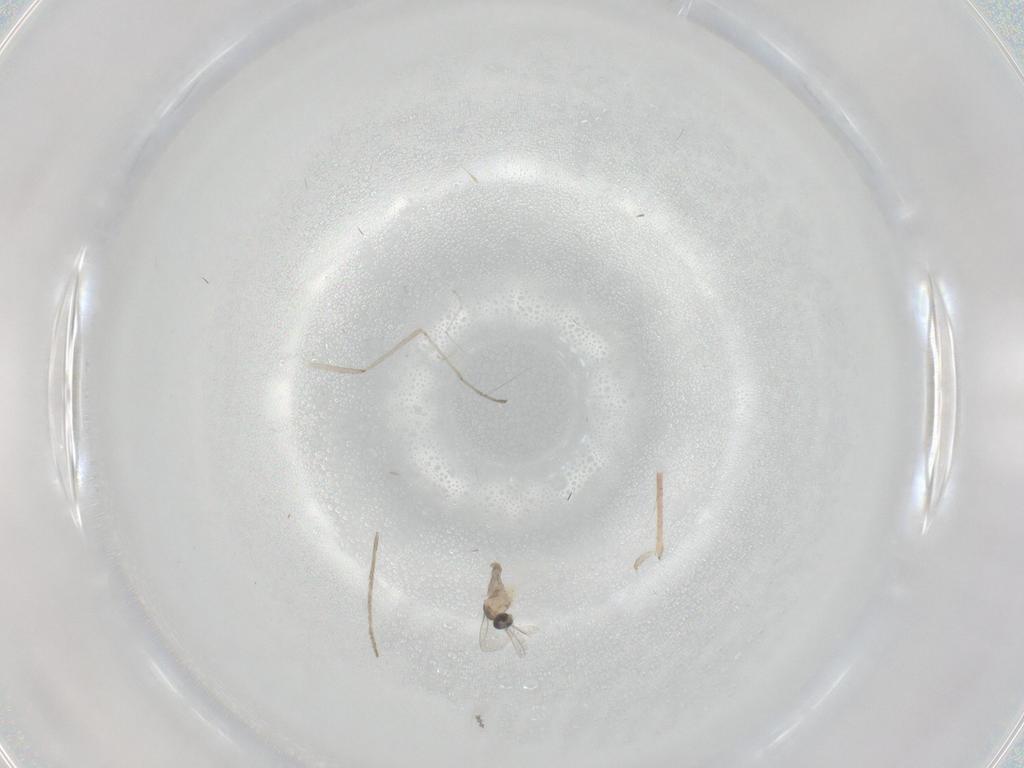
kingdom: Animalia
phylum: Arthropoda
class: Insecta
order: Diptera
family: Cecidomyiidae
